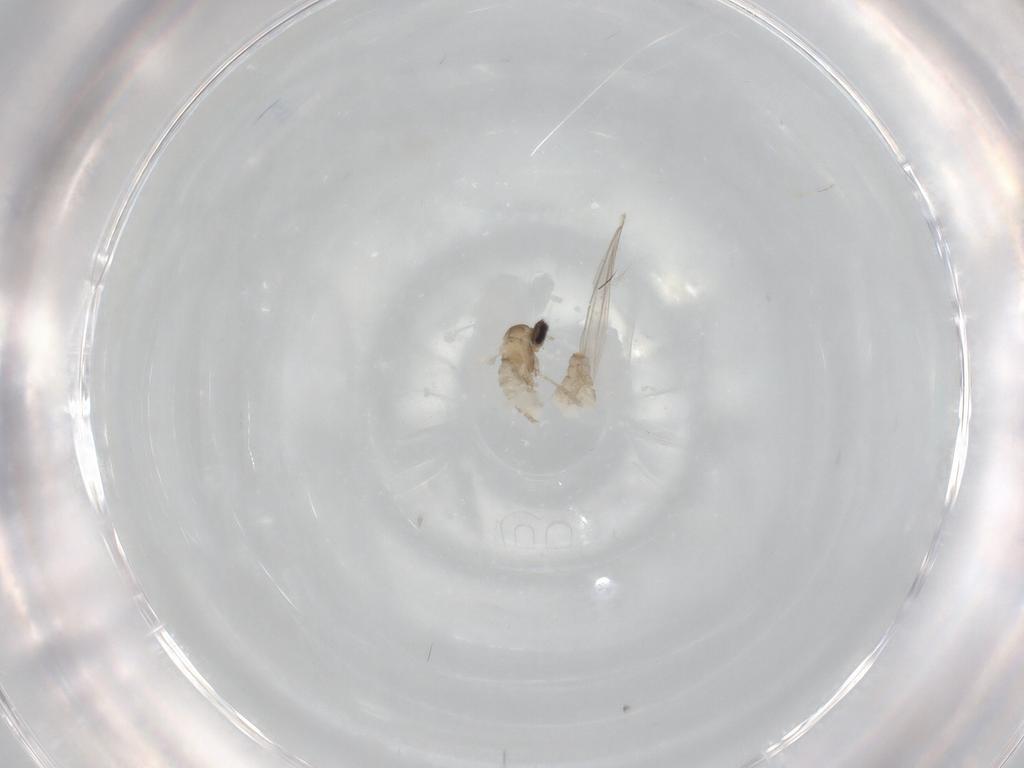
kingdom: Animalia
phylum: Arthropoda
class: Insecta
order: Diptera
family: Cecidomyiidae
